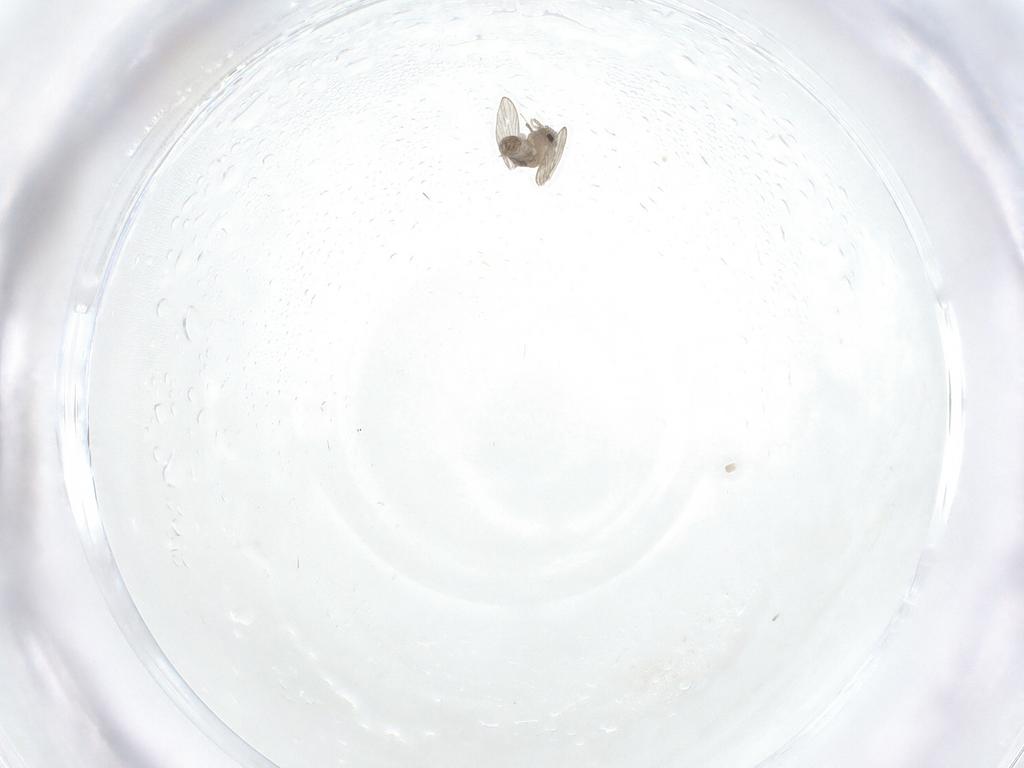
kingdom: Animalia
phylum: Arthropoda
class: Insecta
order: Diptera
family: Psychodidae
